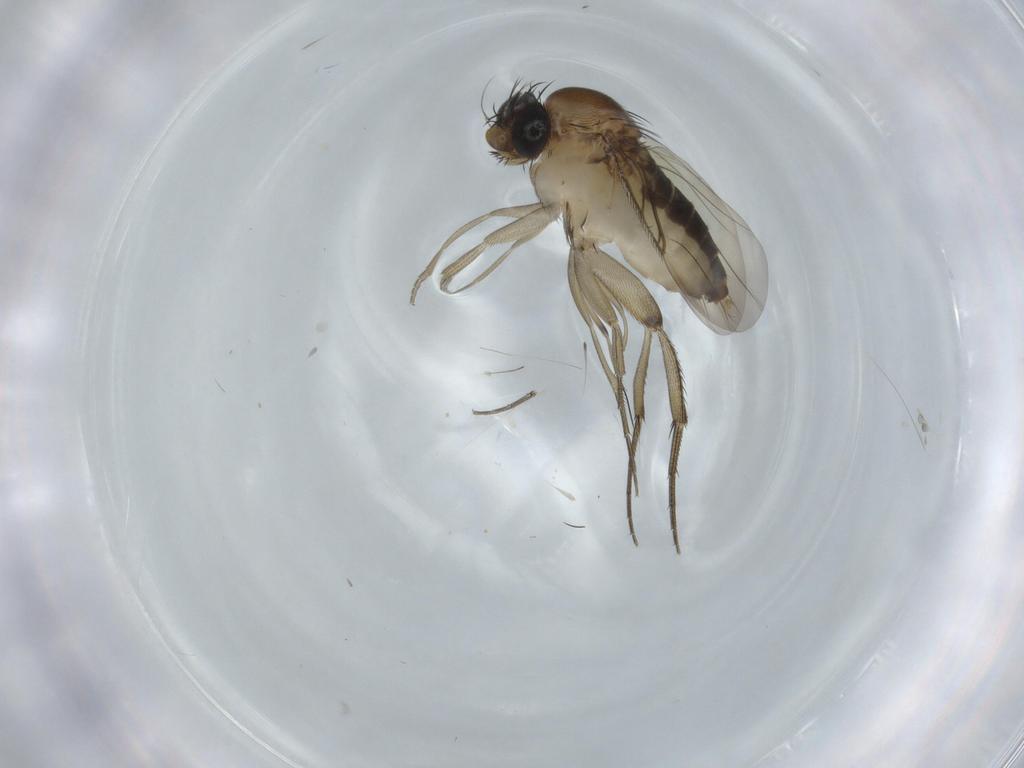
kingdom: Animalia
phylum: Arthropoda
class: Insecta
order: Diptera
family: Phoridae
